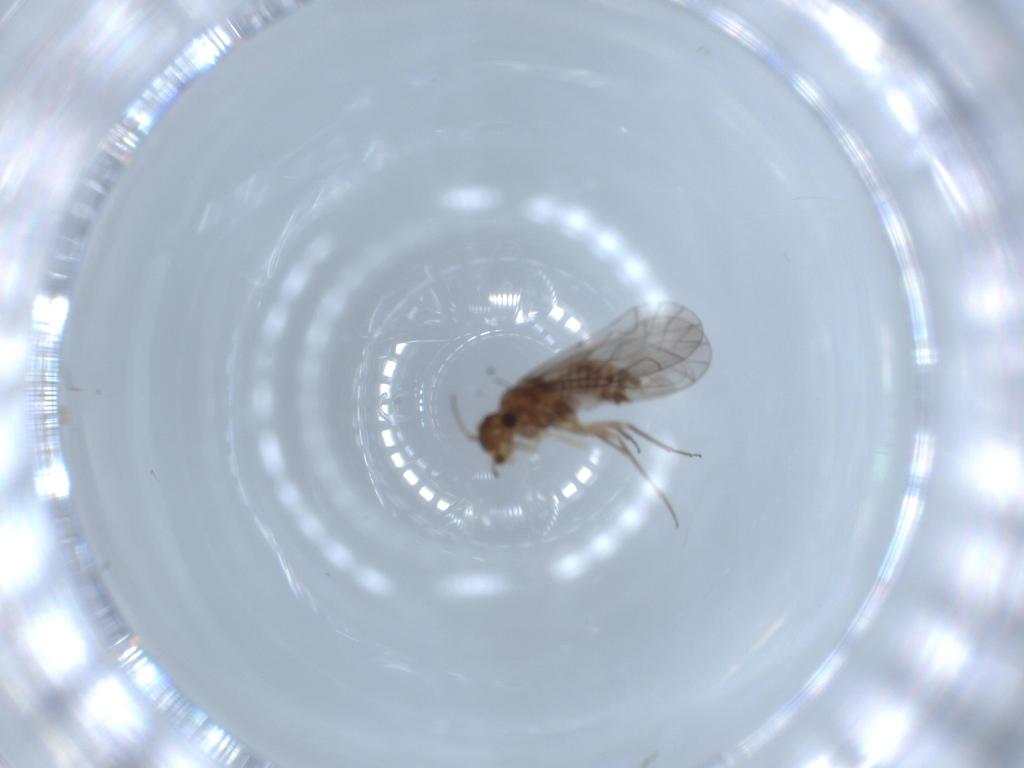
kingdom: Animalia
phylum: Arthropoda
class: Insecta
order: Psocodea
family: Lachesillidae
